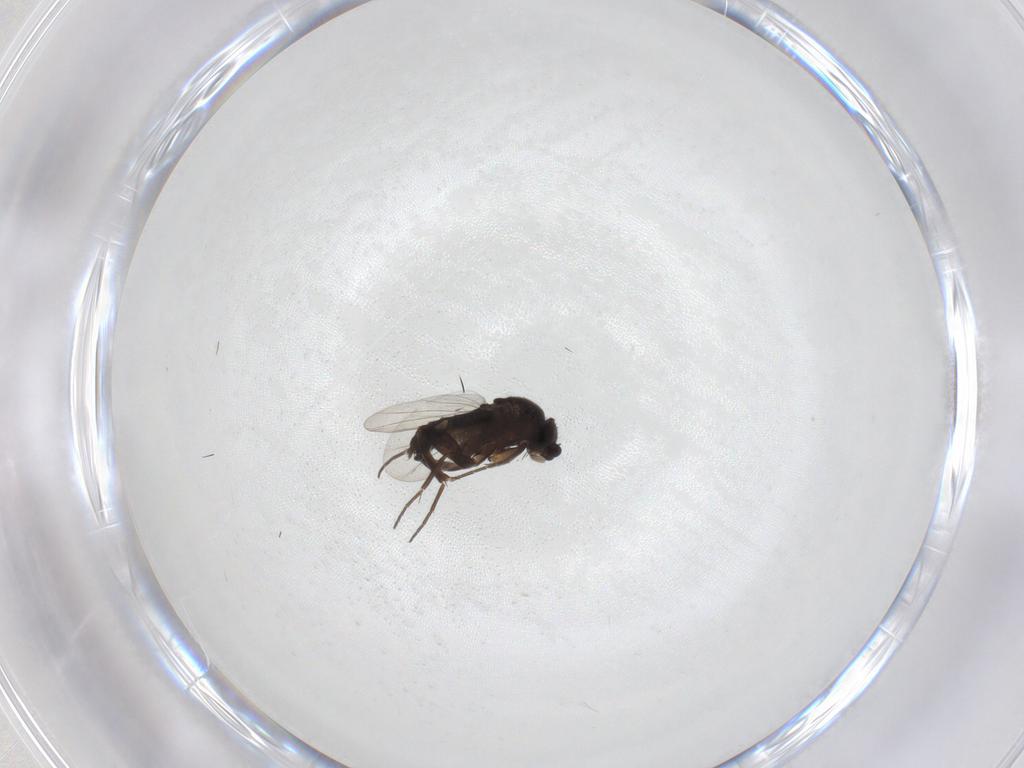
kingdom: Animalia
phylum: Arthropoda
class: Insecta
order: Diptera
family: Phoridae
